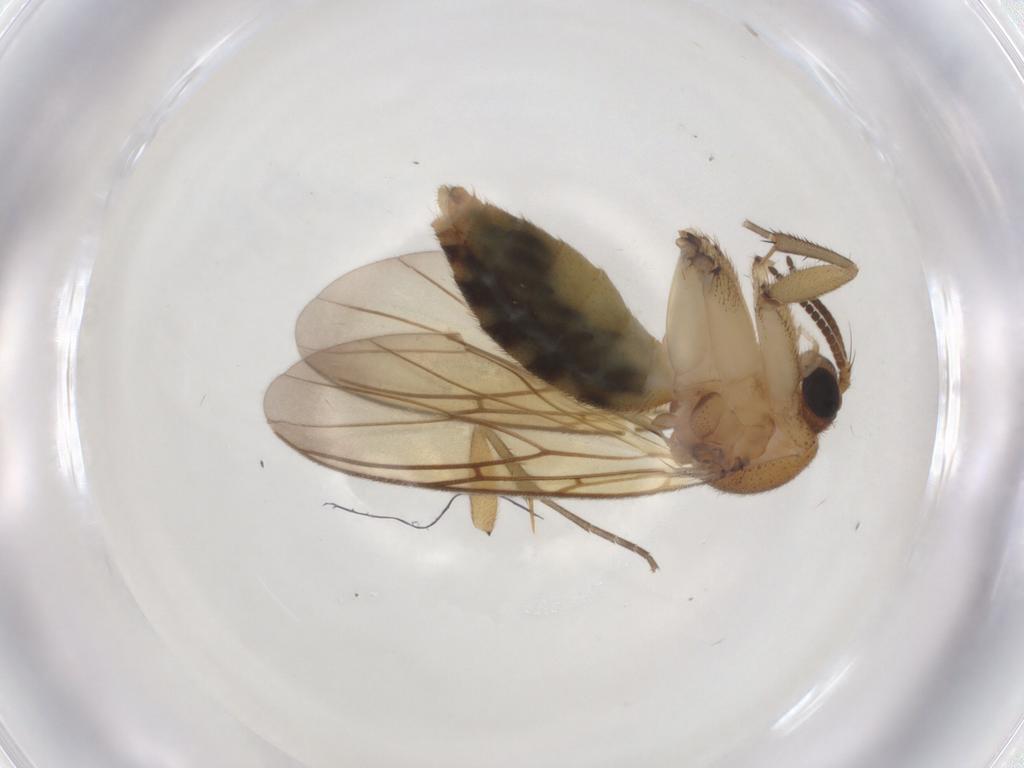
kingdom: Animalia
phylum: Arthropoda
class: Insecta
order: Diptera
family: Sciaridae
